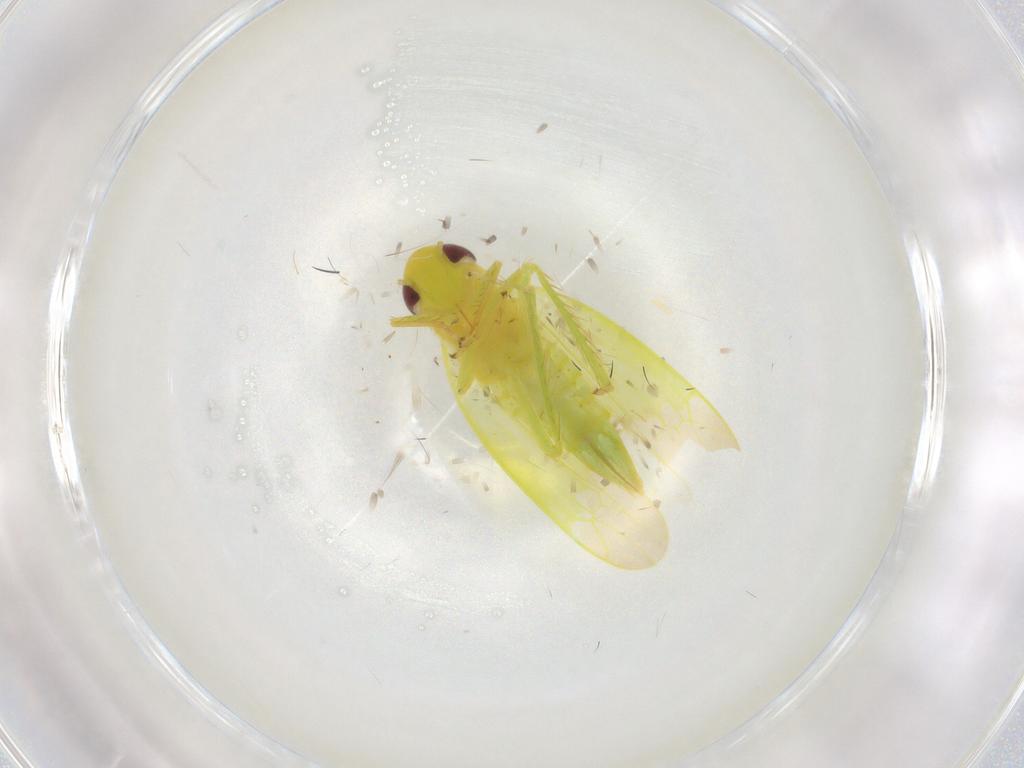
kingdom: Animalia
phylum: Arthropoda
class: Insecta
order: Hemiptera
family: Cicadellidae
